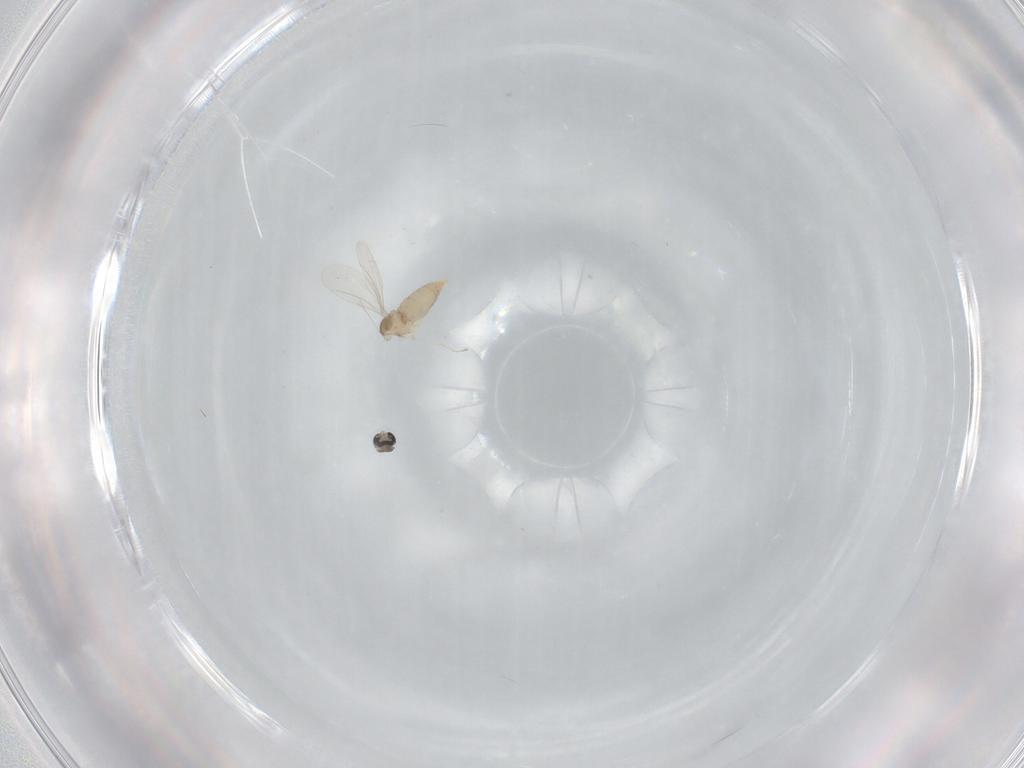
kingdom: Animalia
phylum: Arthropoda
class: Insecta
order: Diptera
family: Cecidomyiidae
